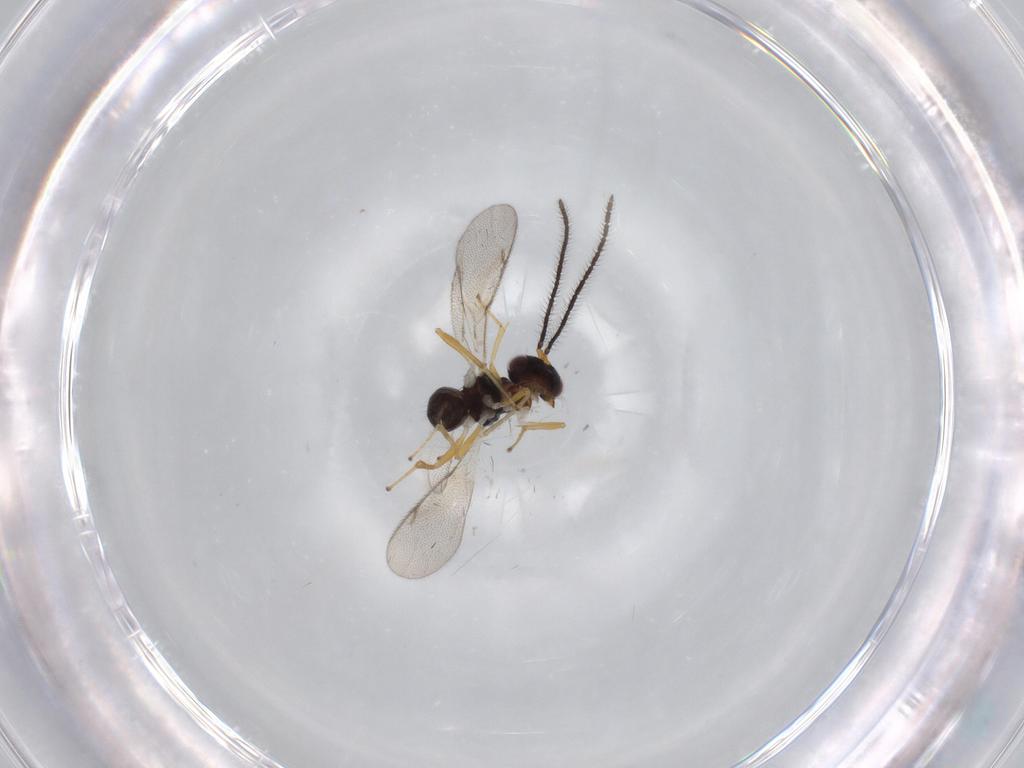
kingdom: Animalia
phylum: Arthropoda
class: Insecta
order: Hymenoptera
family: Diparidae
